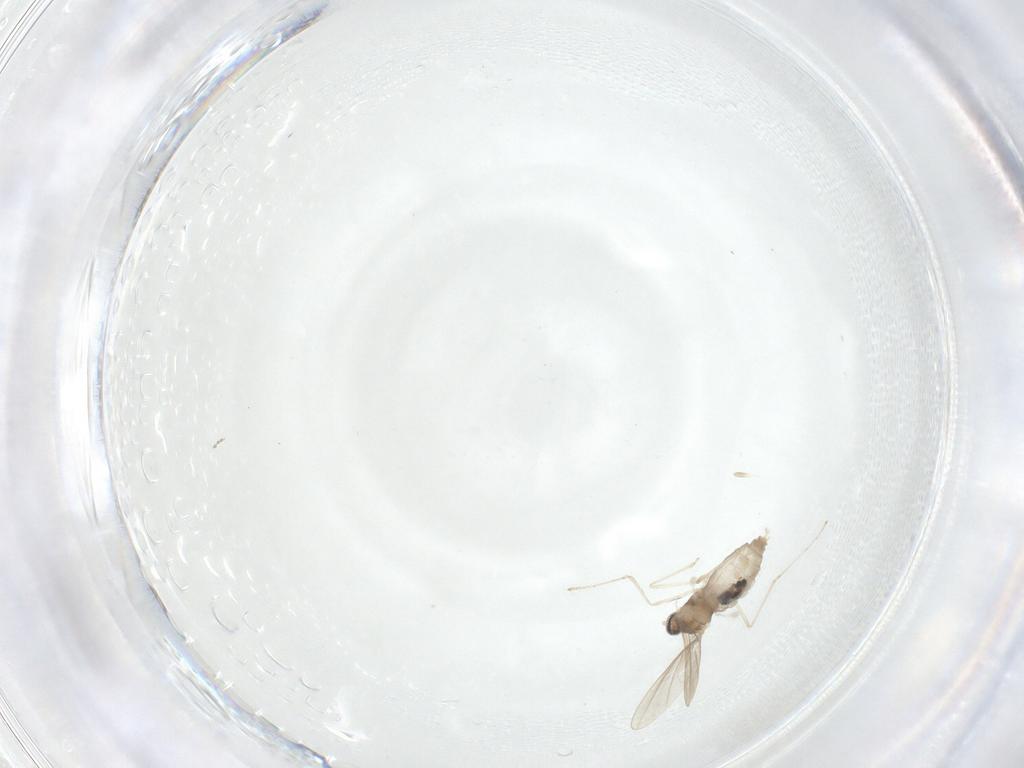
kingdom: Animalia
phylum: Arthropoda
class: Insecta
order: Diptera
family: Cecidomyiidae
